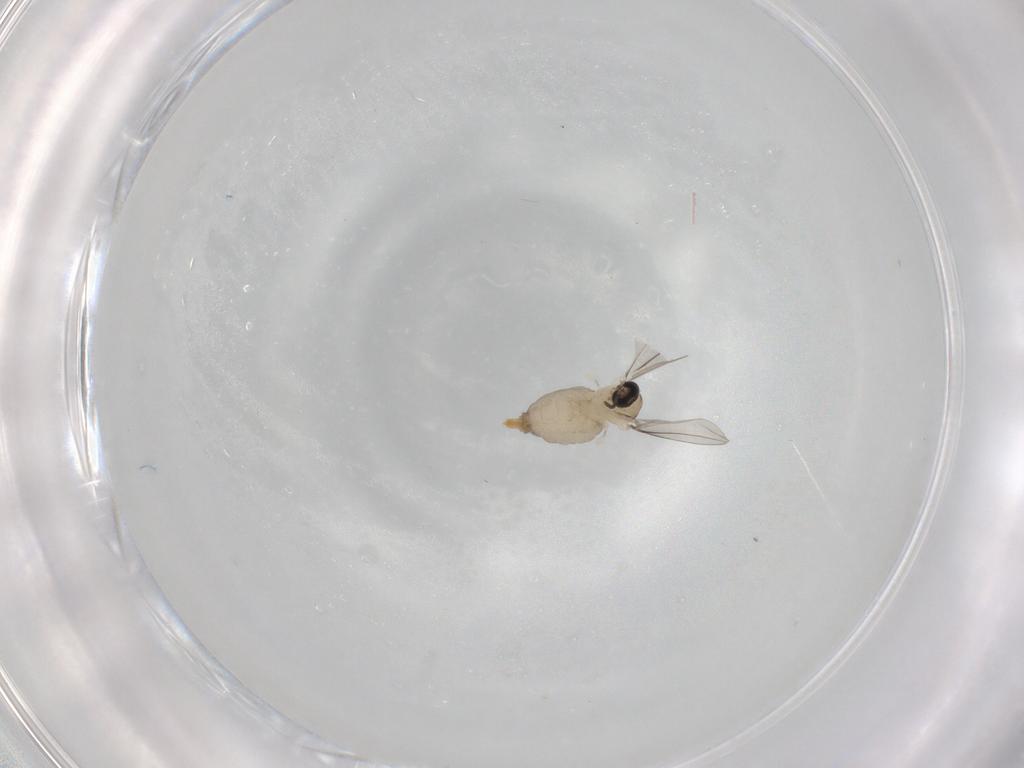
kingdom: Animalia
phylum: Arthropoda
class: Insecta
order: Diptera
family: Cecidomyiidae
